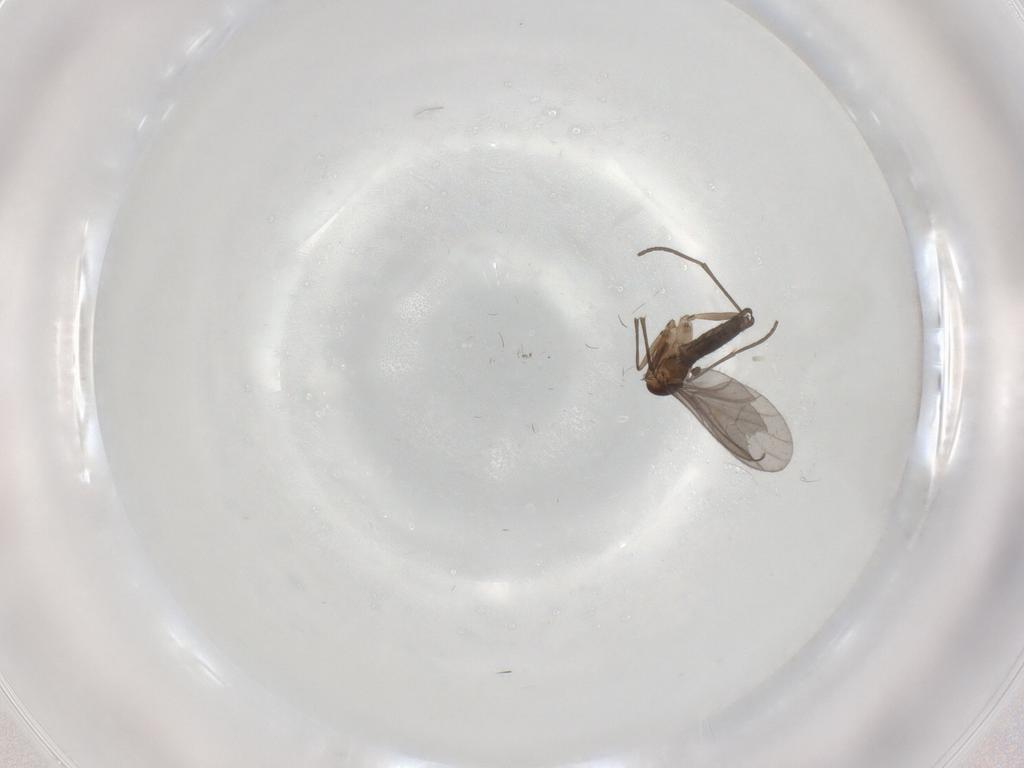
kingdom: Animalia
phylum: Arthropoda
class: Insecta
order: Diptera
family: Sciaridae
